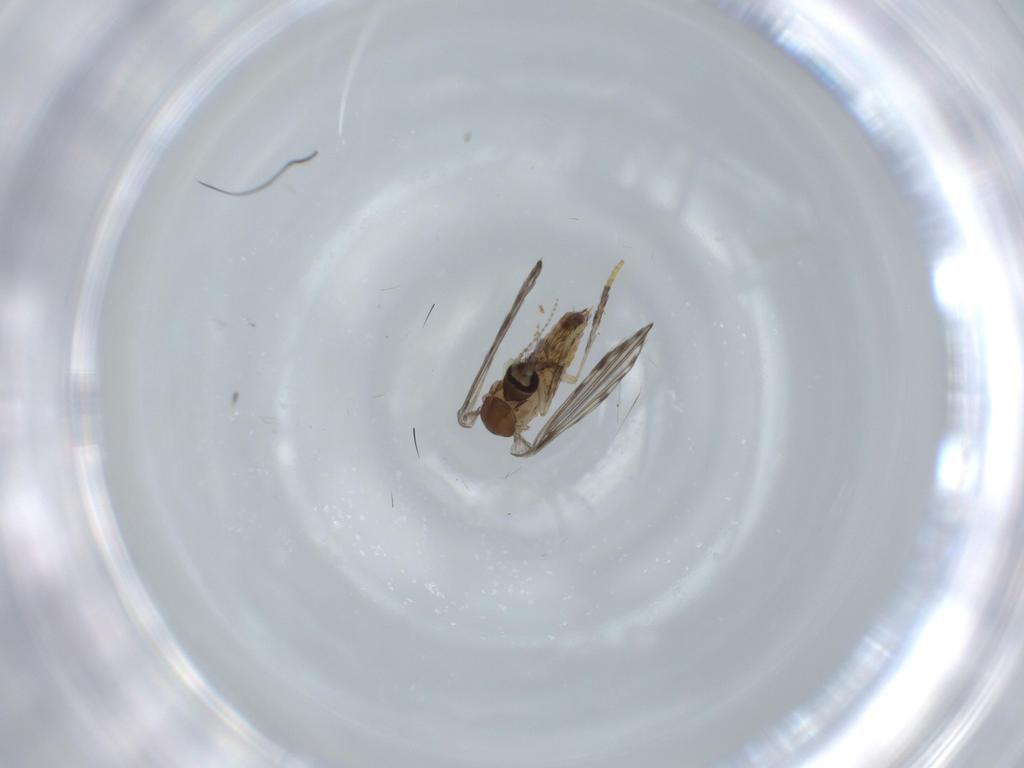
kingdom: Animalia
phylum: Arthropoda
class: Insecta
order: Diptera
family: Psychodidae
